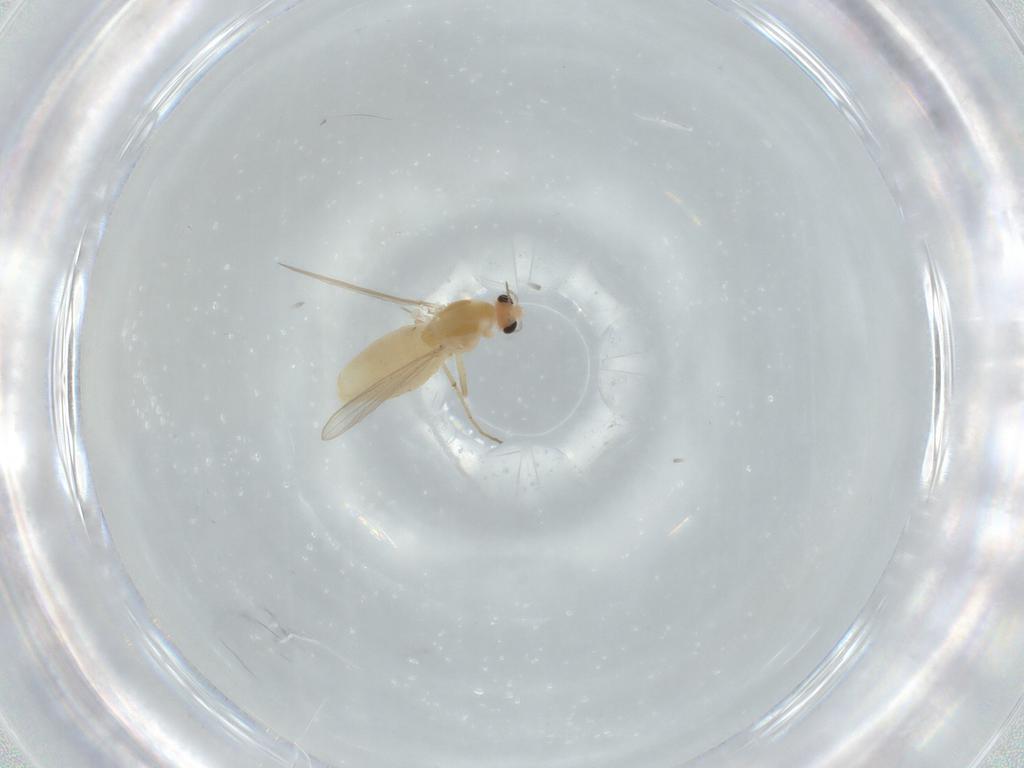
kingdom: Animalia
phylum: Arthropoda
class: Insecta
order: Diptera
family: Chironomidae
